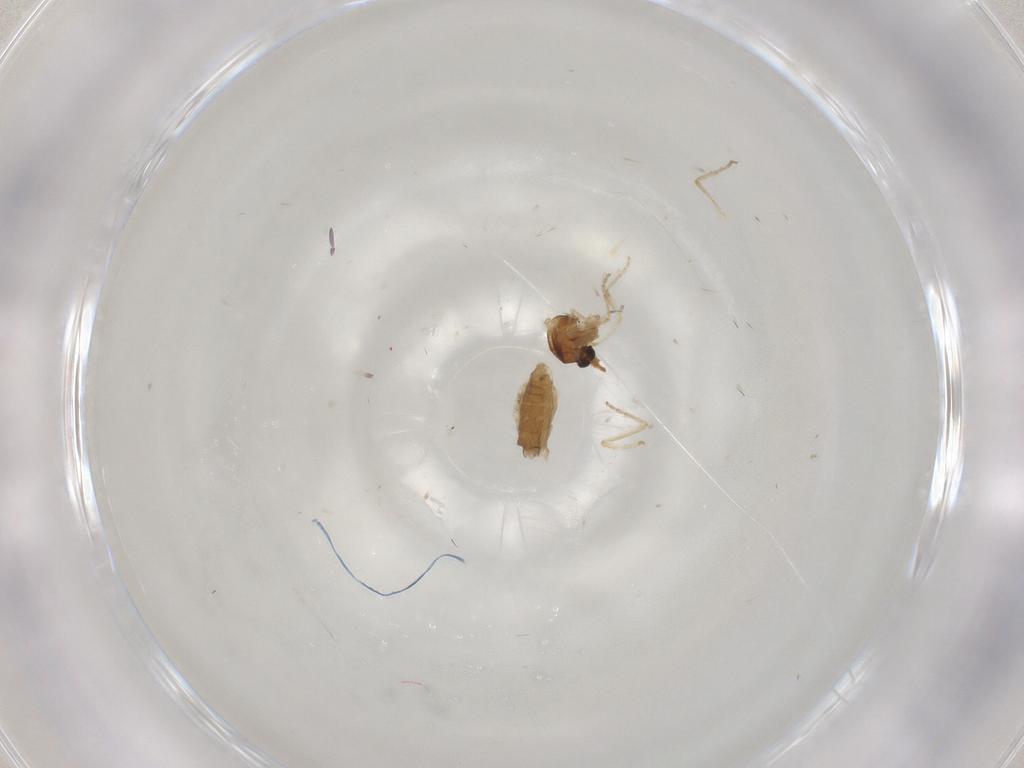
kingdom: Animalia
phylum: Arthropoda
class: Insecta
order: Diptera
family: Ceratopogonidae
